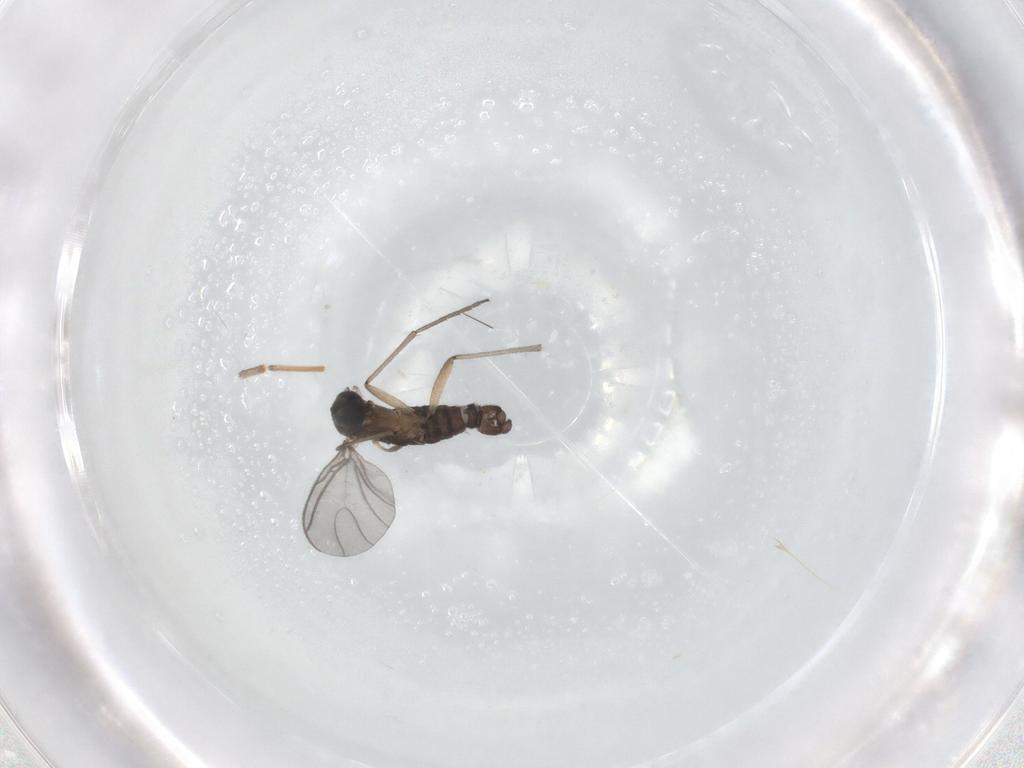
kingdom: Animalia
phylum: Arthropoda
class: Insecta
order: Diptera
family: Sciaridae
